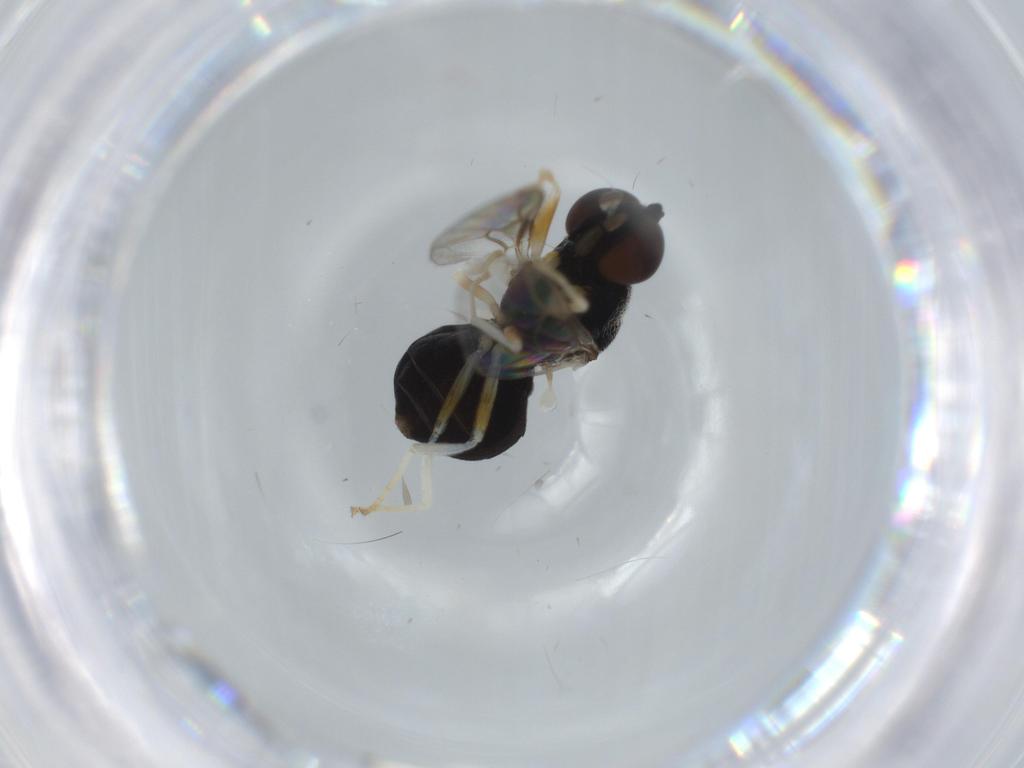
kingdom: Animalia
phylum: Arthropoda
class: Insecta
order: Diptera
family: Stratiomyidae
